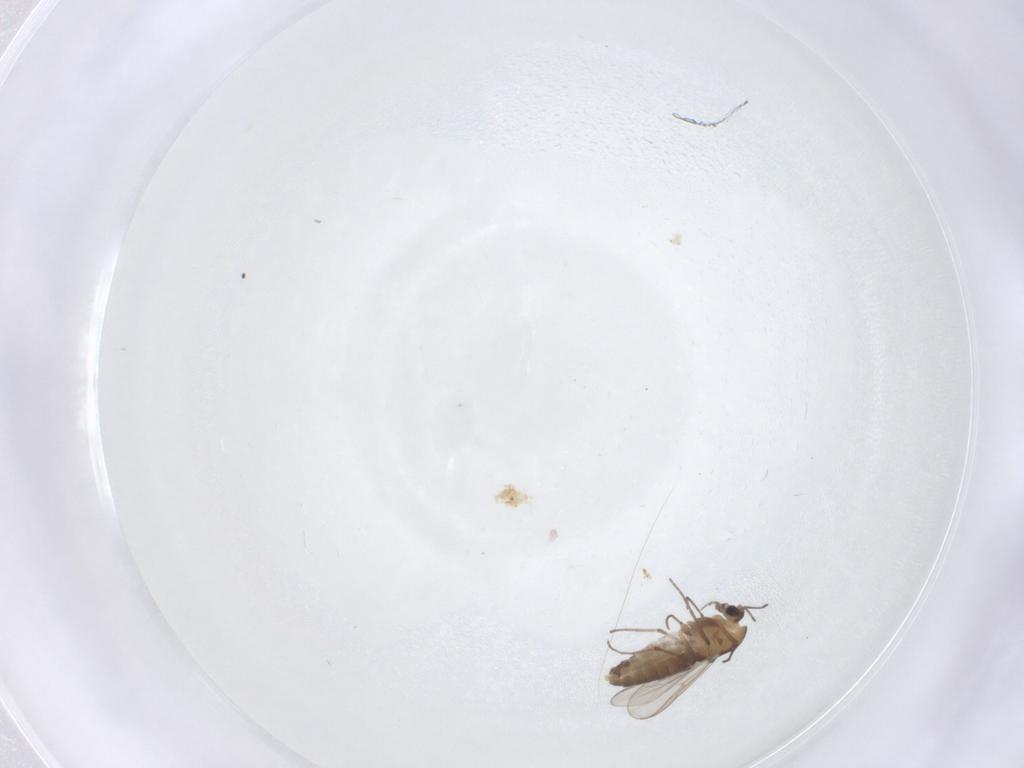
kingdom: Animalia
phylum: Arthropoda
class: Insecta
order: Diptera
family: Chironomidae
